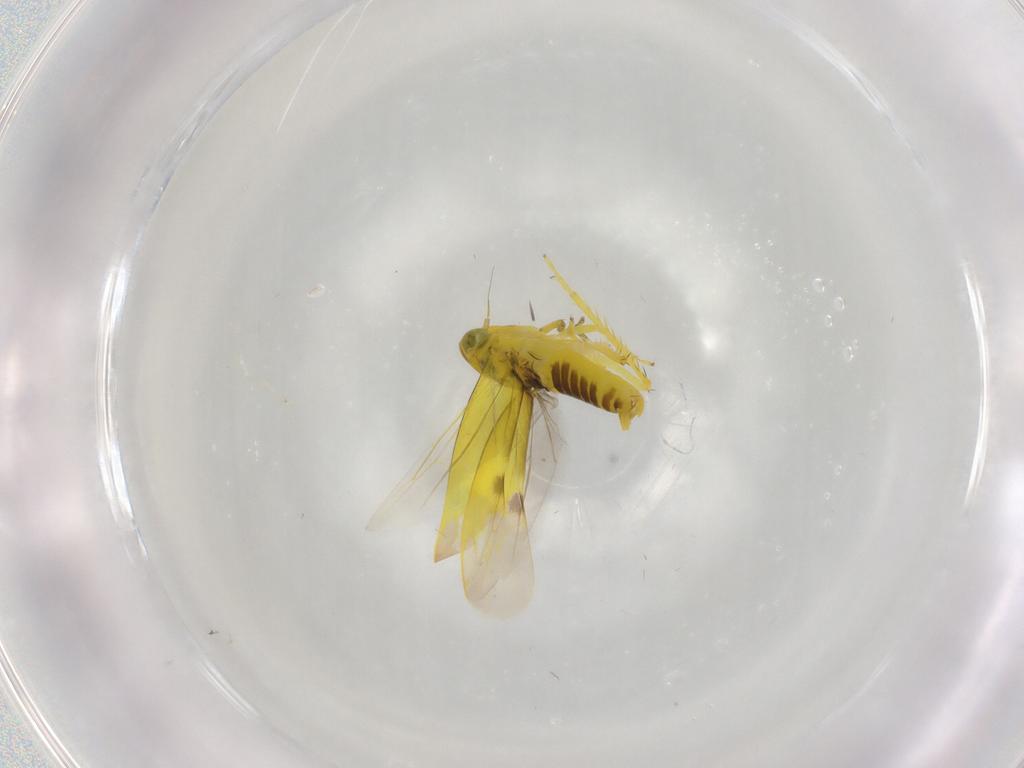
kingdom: Animalia
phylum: Arthropoda
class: Insecta
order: Hemiptera
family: Cicadellidae
